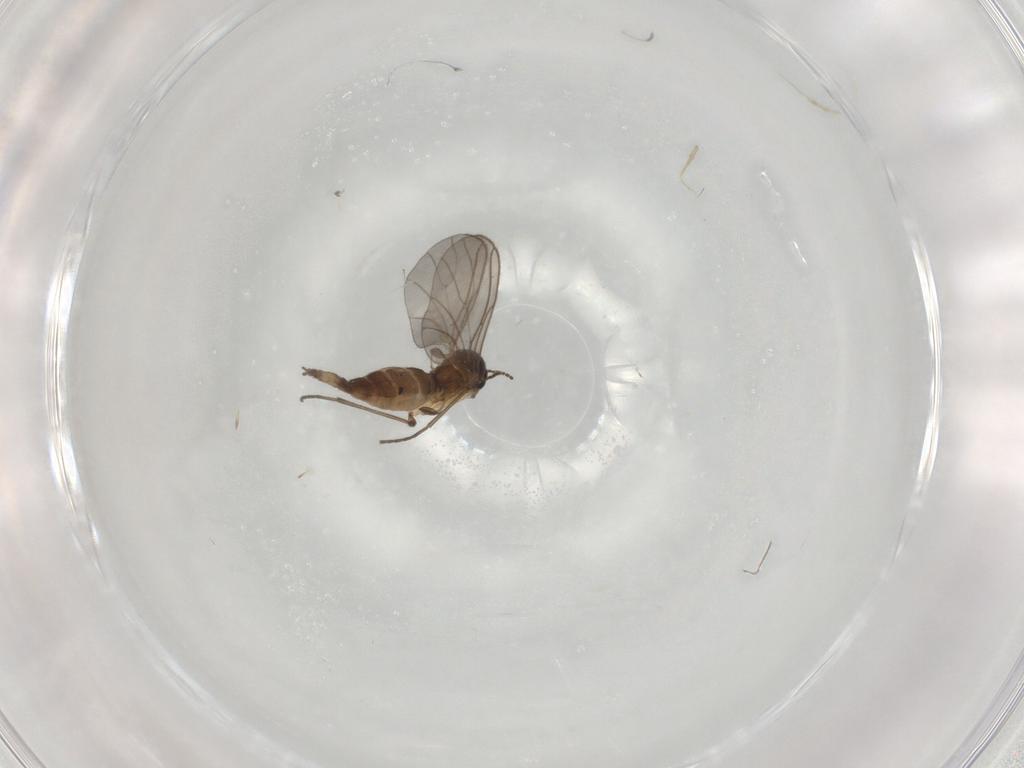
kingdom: Animalia
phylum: Arthropoda
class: Insecta
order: Diptera
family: Sciaridae
